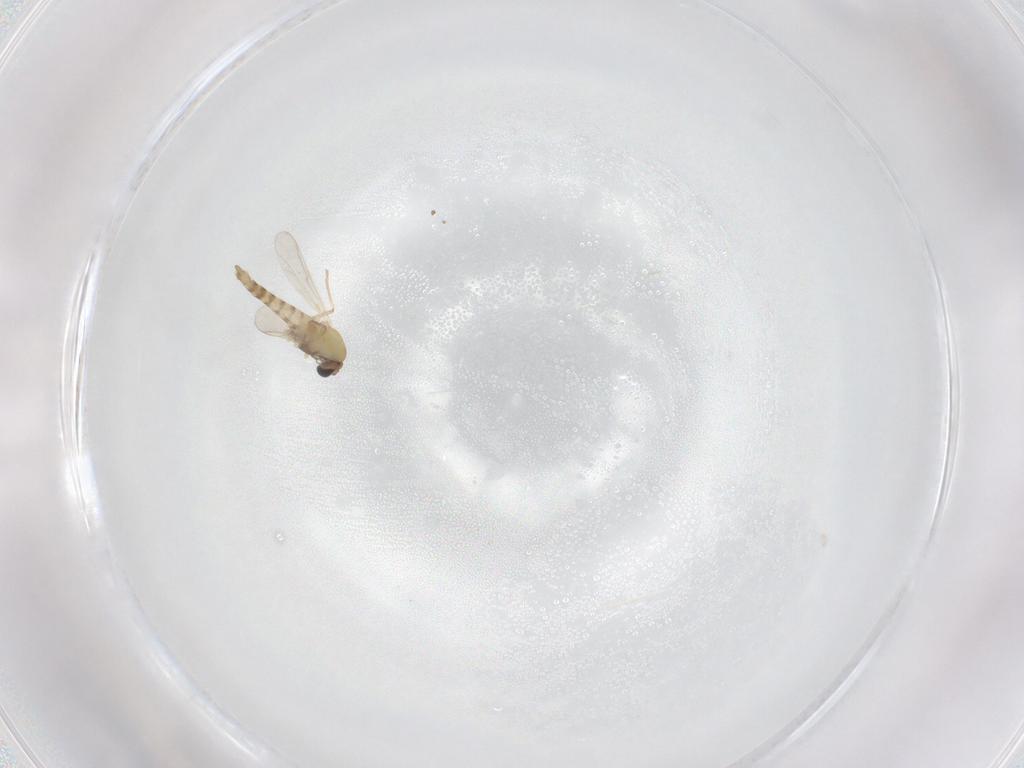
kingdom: Animalia
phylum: Arthropoda
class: Insecta
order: Diptera
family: Chironomidae
